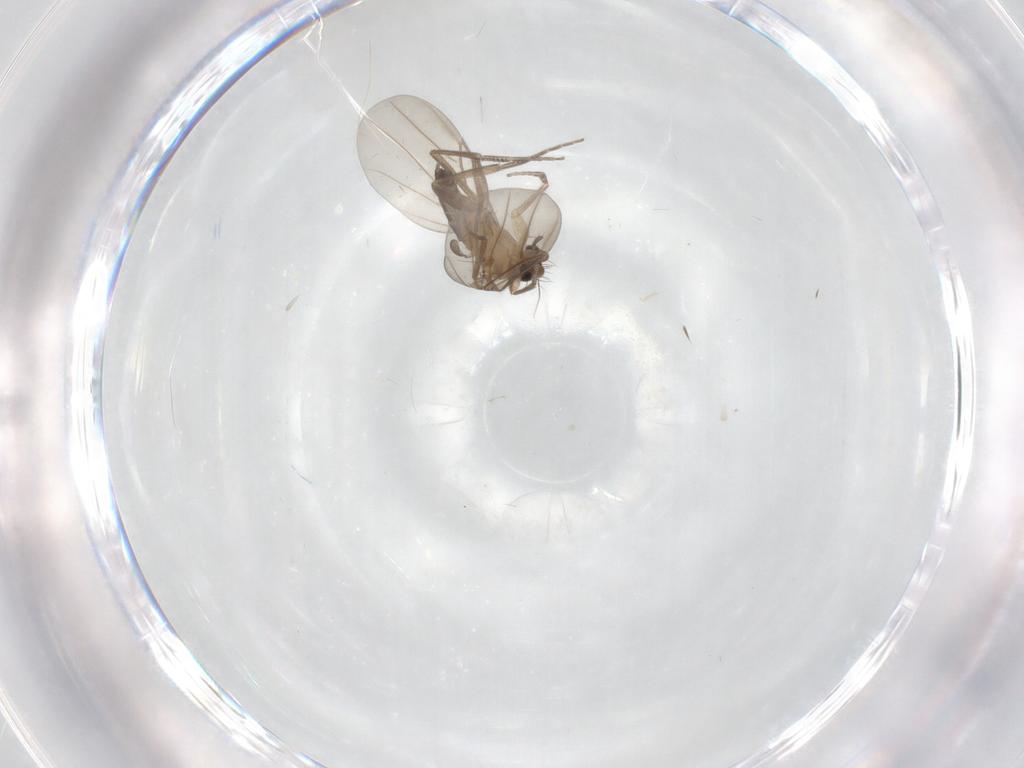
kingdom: Animalia
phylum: Arthropoda
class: Insecta
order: Diptera
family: Phoridae
